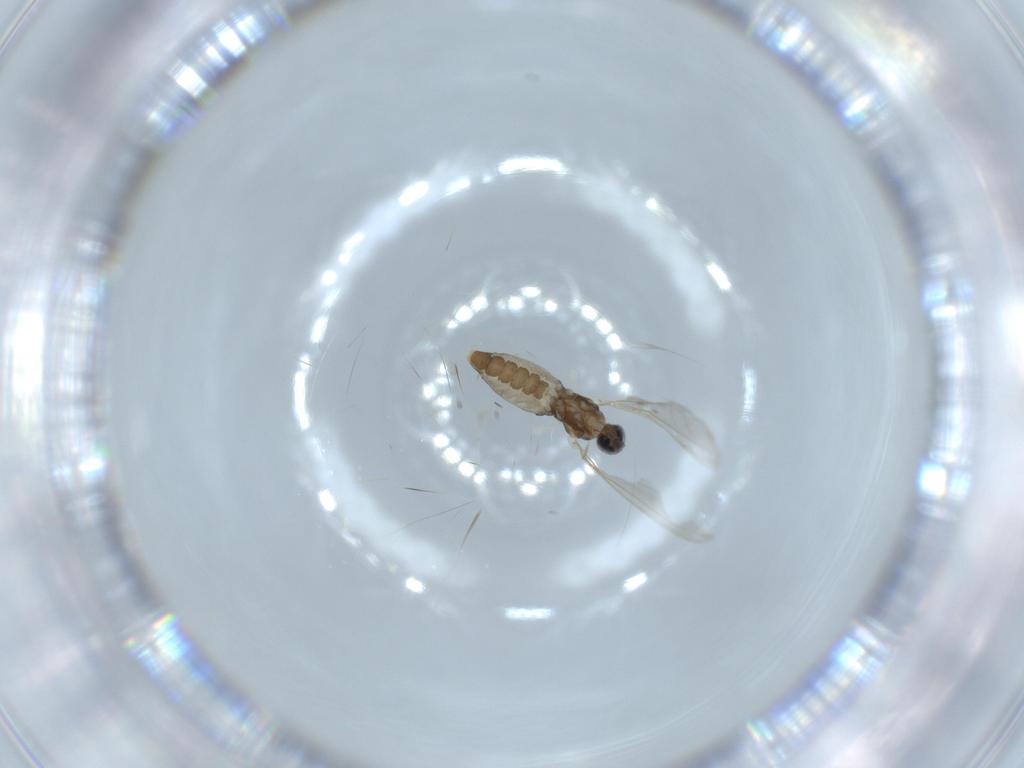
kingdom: Animalia
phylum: Arthropoda
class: Insecta
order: Diptera
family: Cecidomyiidae
